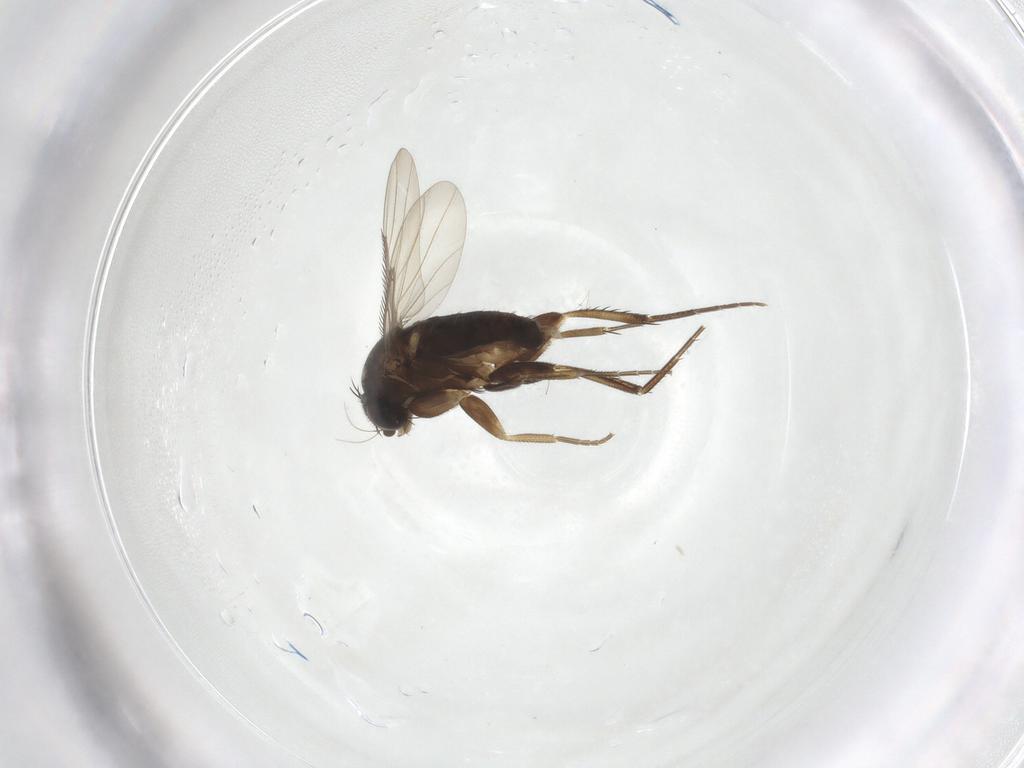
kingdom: Animalia
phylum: Arthropoda
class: Insecta
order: Diptera
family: Phoridae
